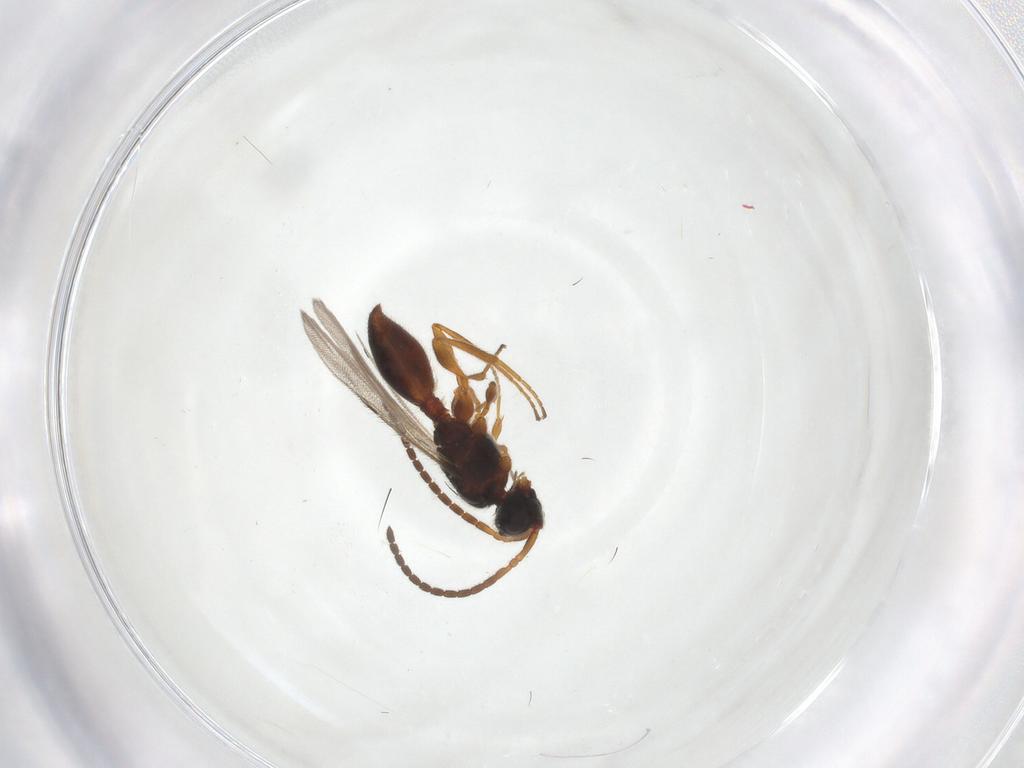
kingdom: Animalia
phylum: Arthropoda
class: Insecta
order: Hymenoptera
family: Diapriidae
